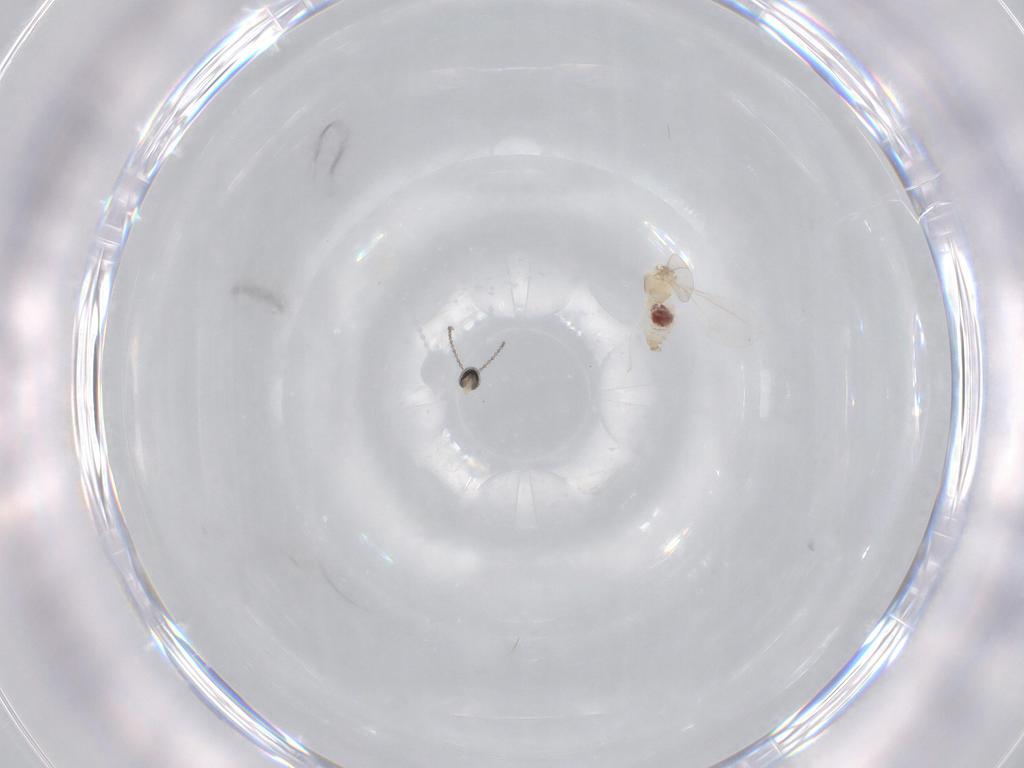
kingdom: Animalia
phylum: Arthropoda
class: Insecta
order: Diptera
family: Cecidomyiidae
